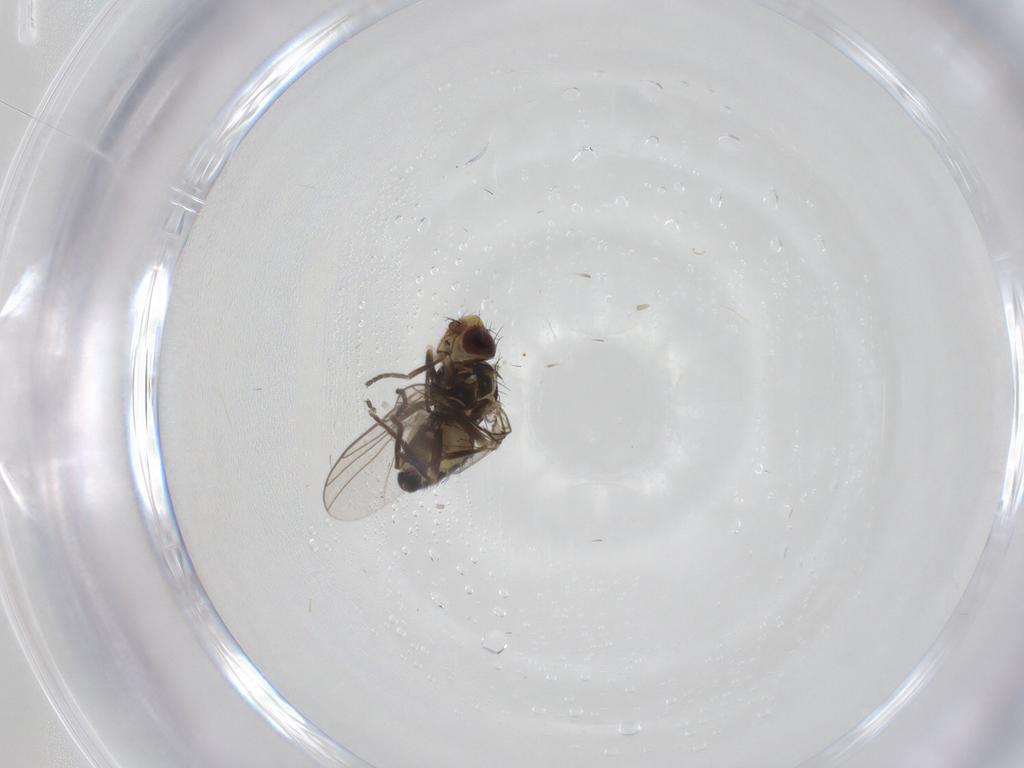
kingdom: Animalia
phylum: Arthropoda
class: Insecta
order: Diptera
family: Agromyzidae
